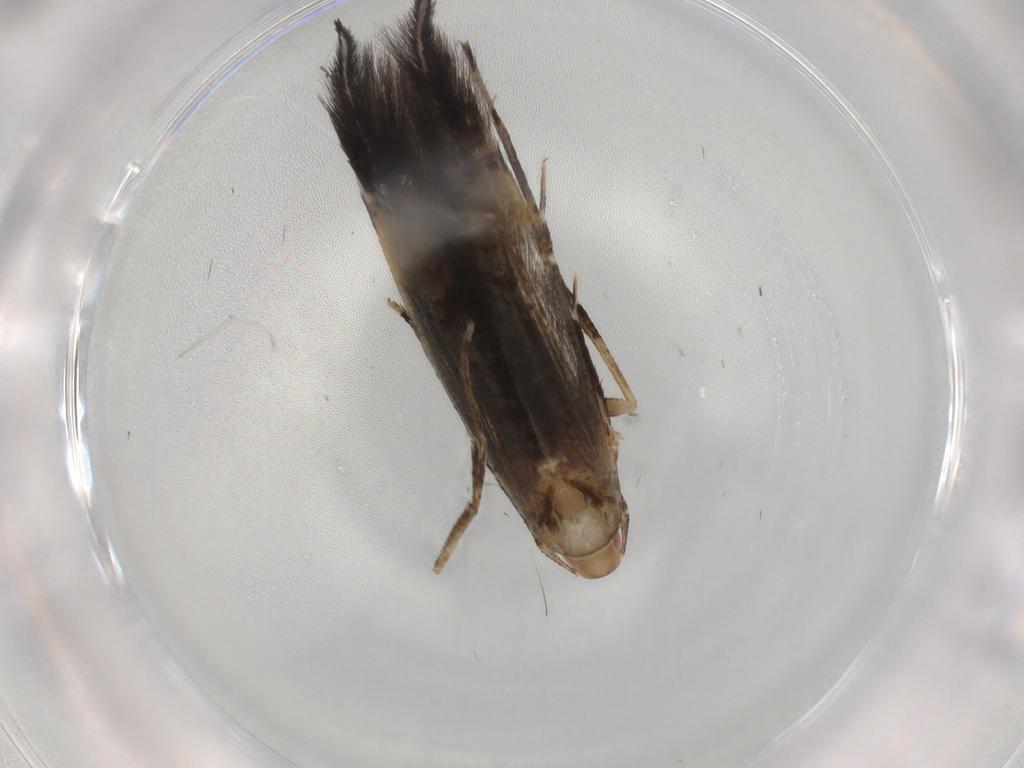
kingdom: Animalia
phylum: Arthropoda
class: Insecta
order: Lepidoptera
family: Cosmopterigidae
